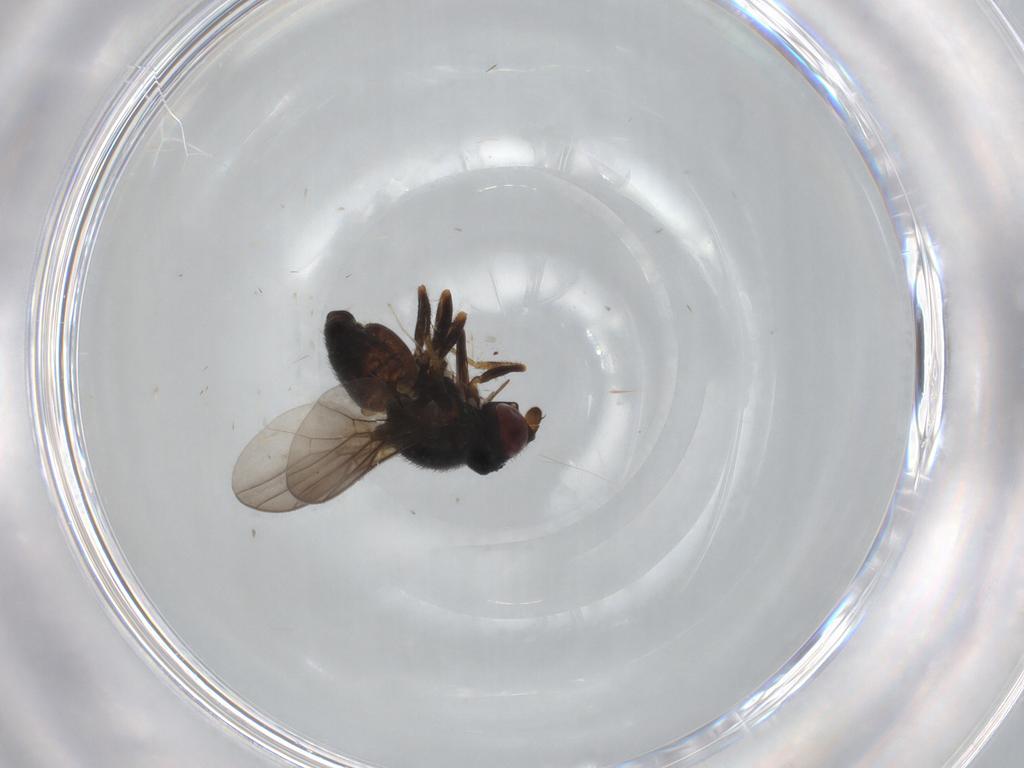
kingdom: Animalia
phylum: Arthropoda
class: Insecta
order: Diptera
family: Chloropidae
